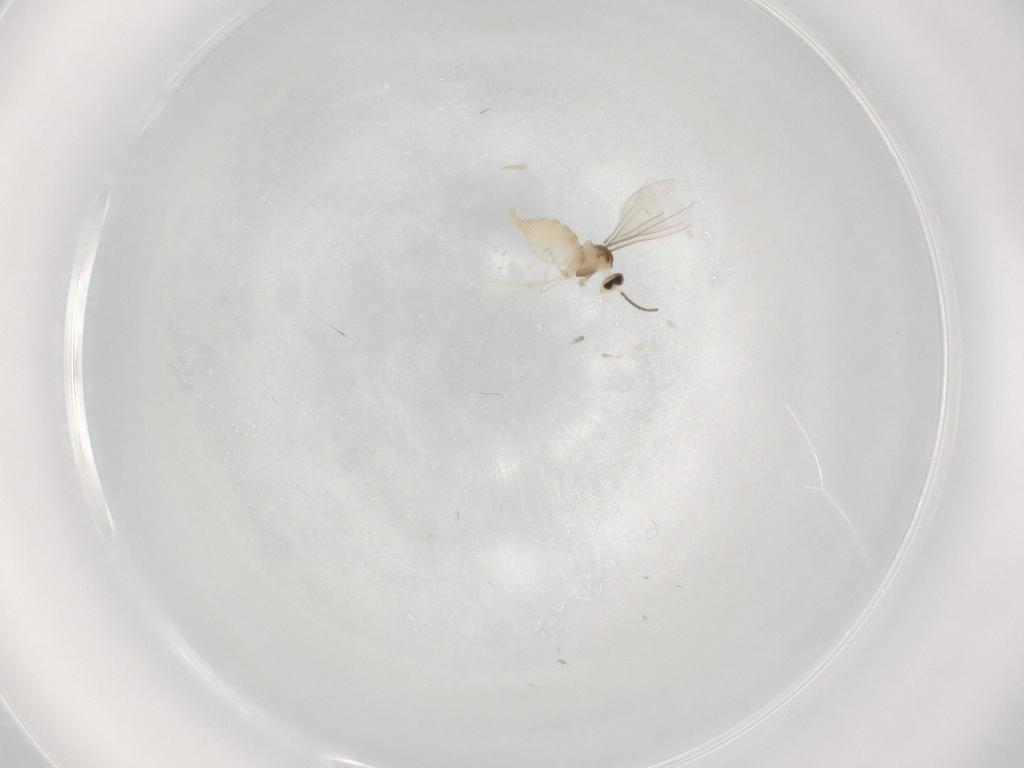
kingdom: Animalia
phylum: Arthropoda
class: Insecta
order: Diptera
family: Cecidomyiidae
